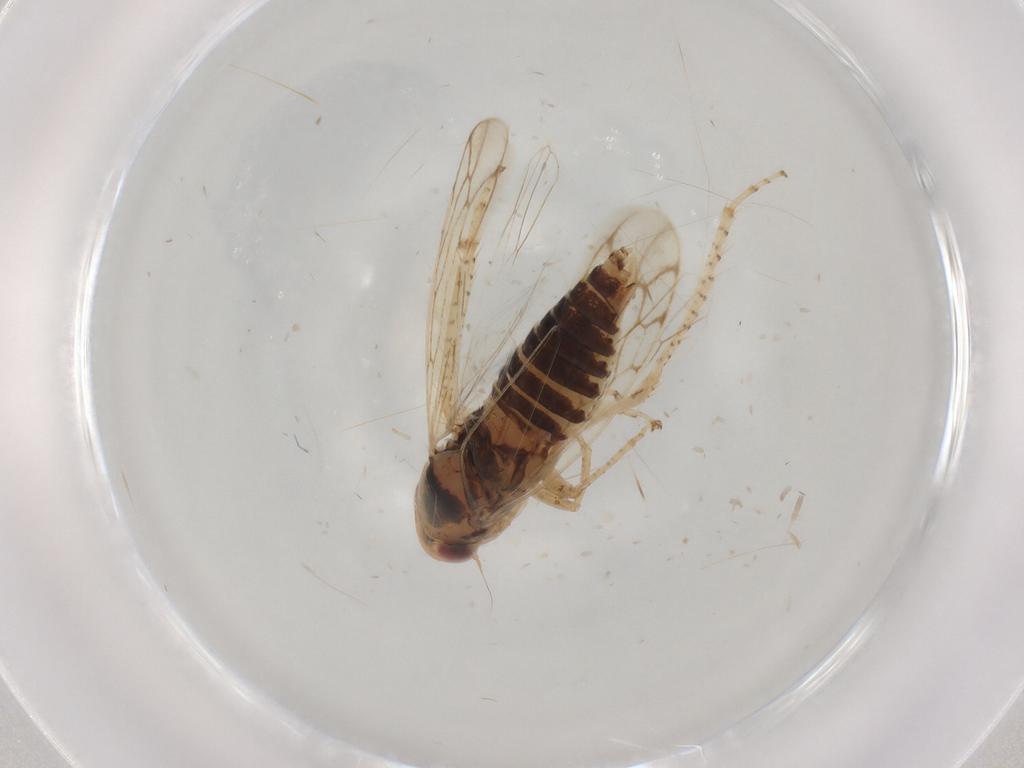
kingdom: Animalia
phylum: Arthropoda
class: Insecta
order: Hemiptera
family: Cicadellidae
